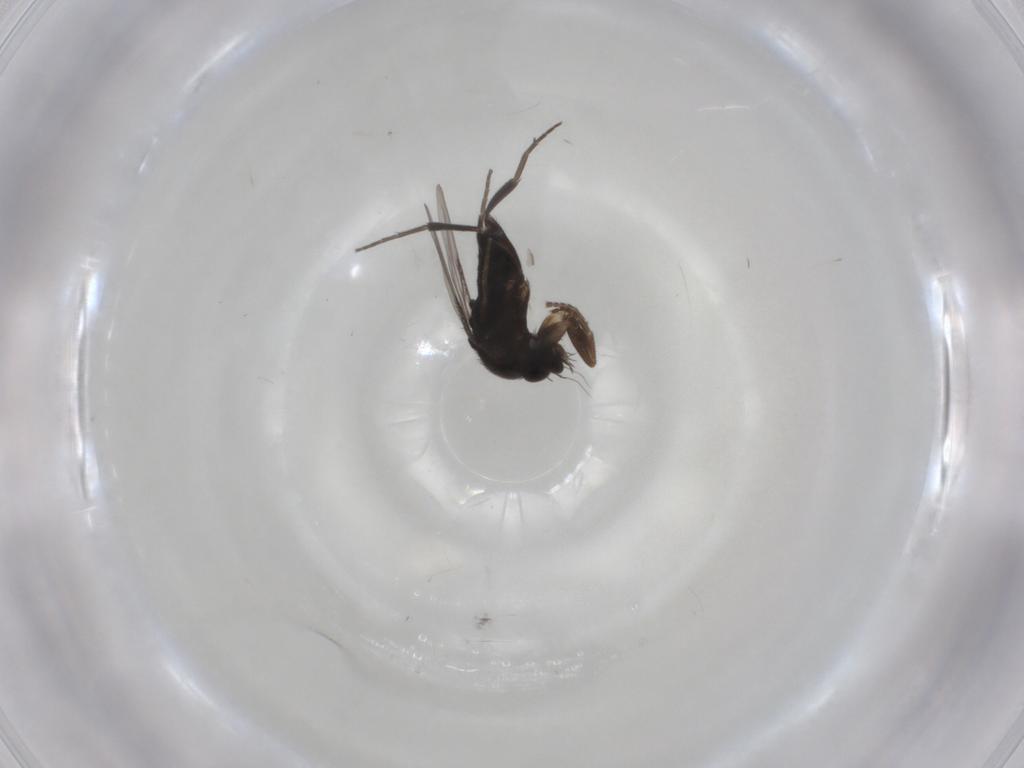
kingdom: Animalia
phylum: Arthropoda
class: Insecta
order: Diptera
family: Phoridae
